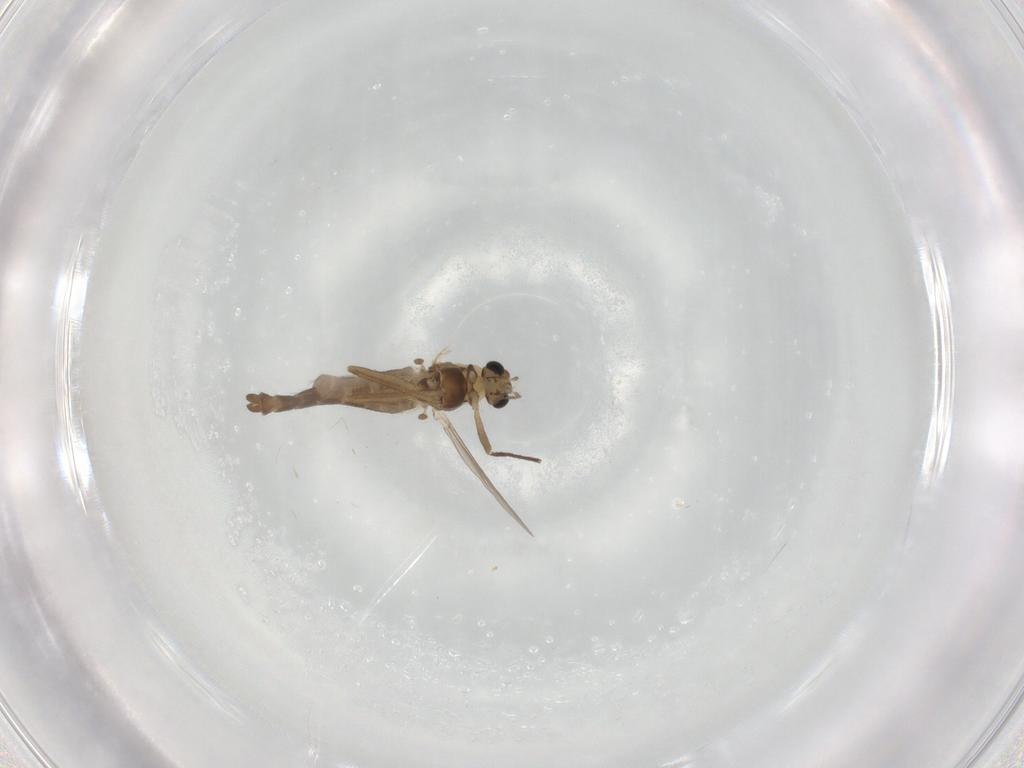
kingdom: Animalia
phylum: Arthropoda
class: Insecta
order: Diptera
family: Chironomidae
